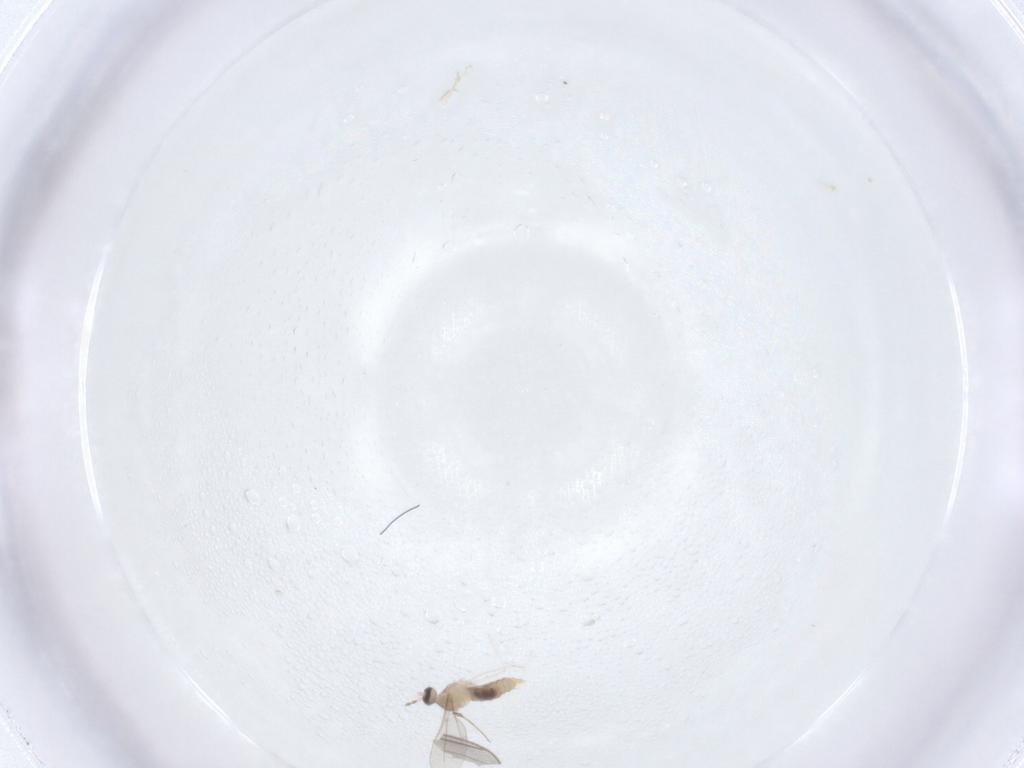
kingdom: Animalia
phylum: Arthropoda
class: Insecta
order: Diptera
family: Cecidomyiidae
